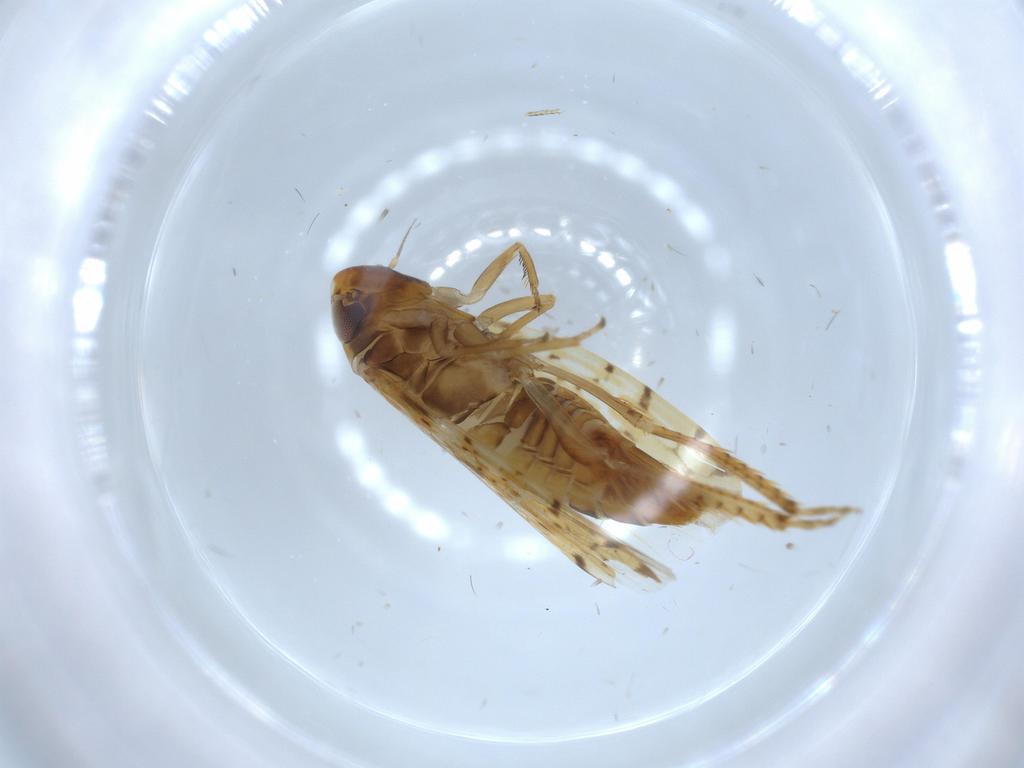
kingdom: Animalia
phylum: Arthropoda
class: Insecta
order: Hemiptera
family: Cicadellidae
